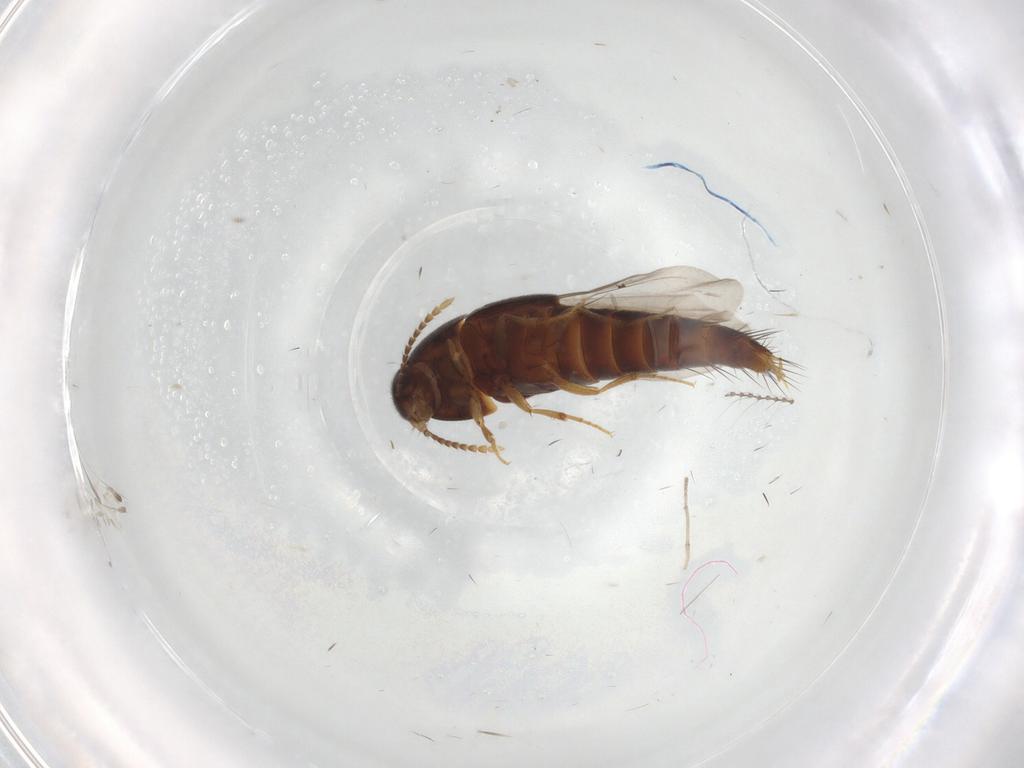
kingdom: Animalia
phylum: Arthropoda
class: Insecta
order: Coleoptera
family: Staphylinidae
